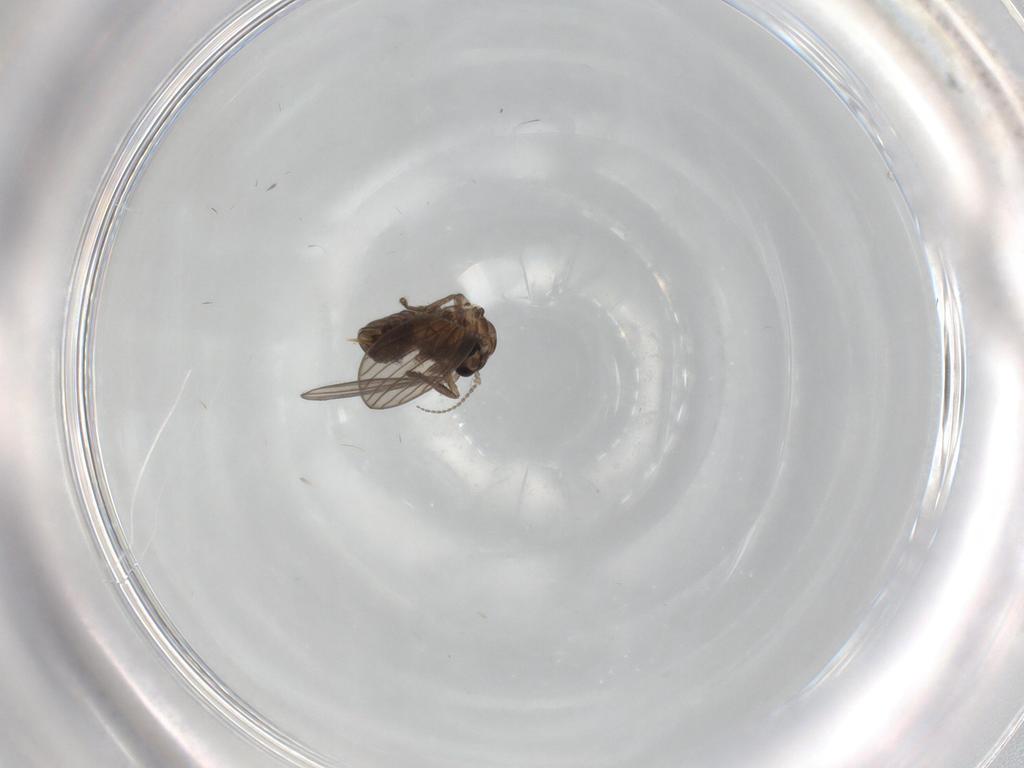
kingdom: Animalia
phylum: Arthropoda
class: Insecta
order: Diptera
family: Psychodidae
